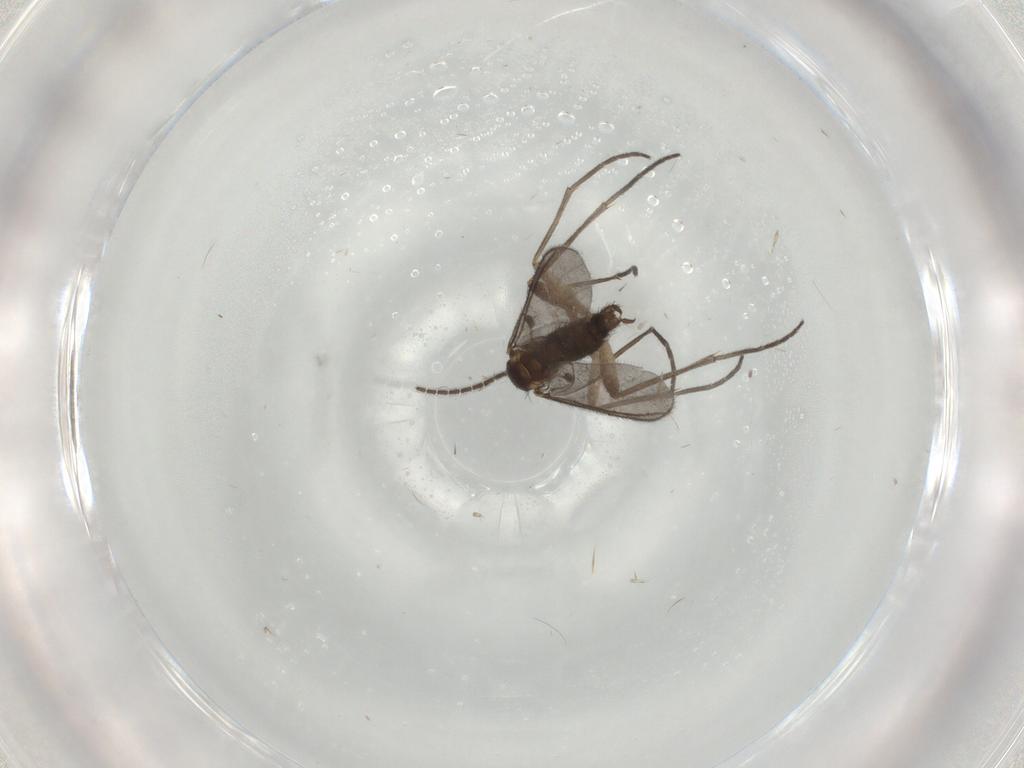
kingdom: Animalia
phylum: Arthropoda
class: Insecta
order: Diptera
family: Sciaridae
